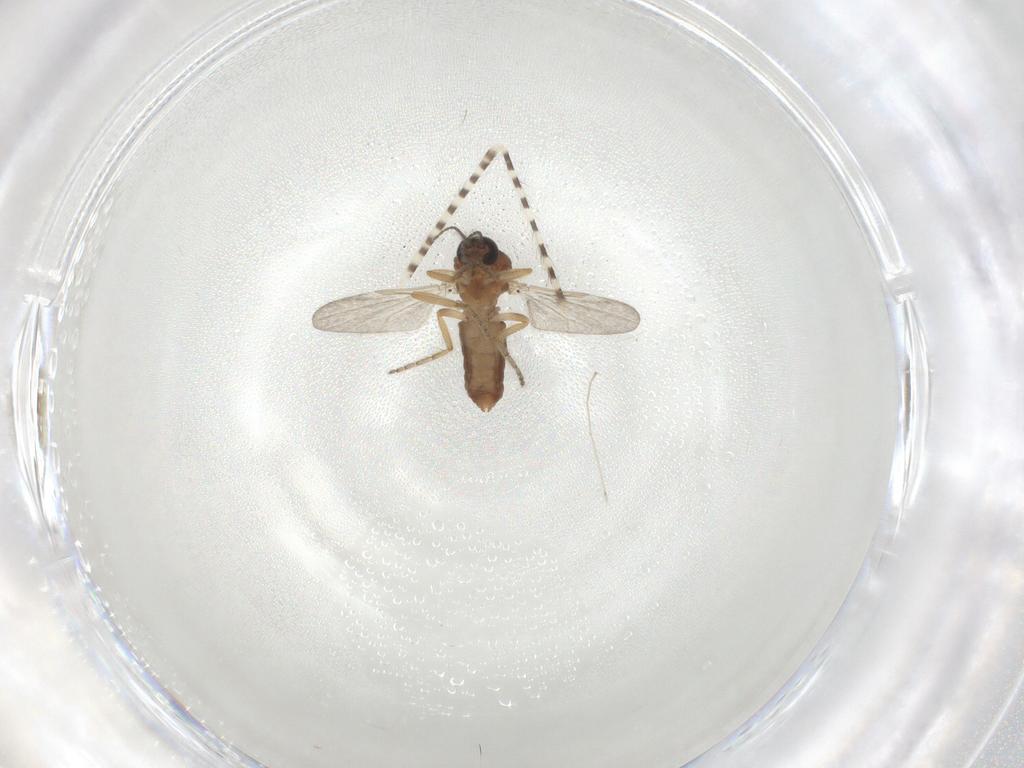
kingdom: Animalia
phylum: Arthropoda
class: Insecta
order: Diptera
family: Ceratopogonidae
